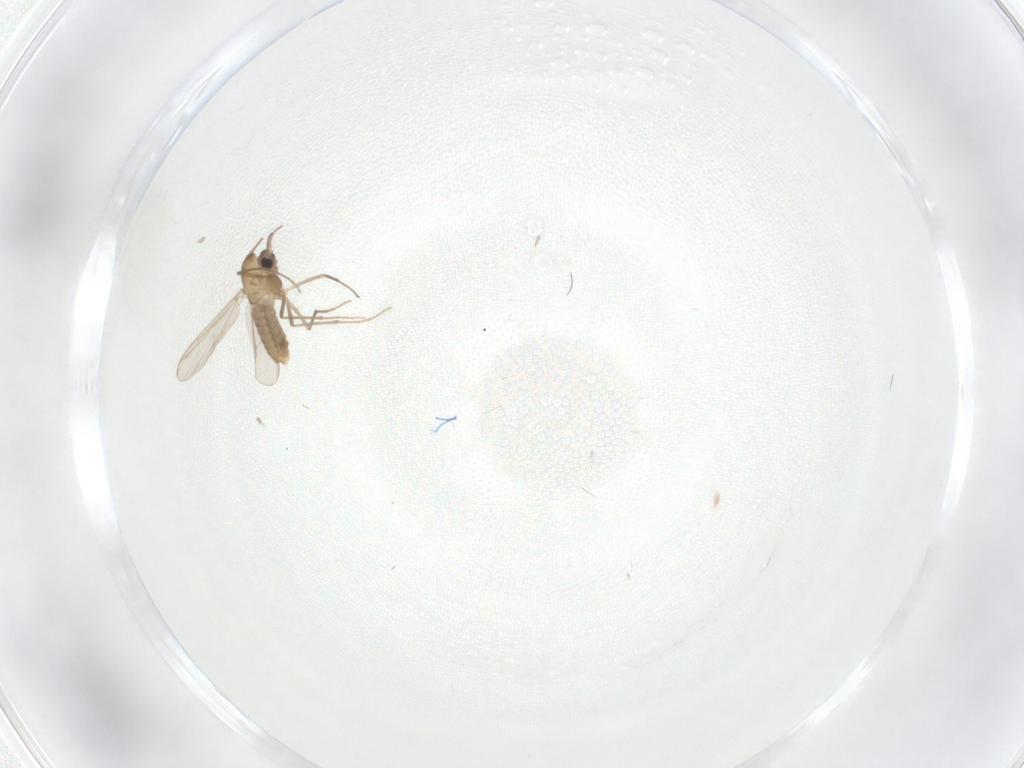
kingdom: Animalia
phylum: Arthropoda
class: Insecta
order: Diptera
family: Chironomidae
